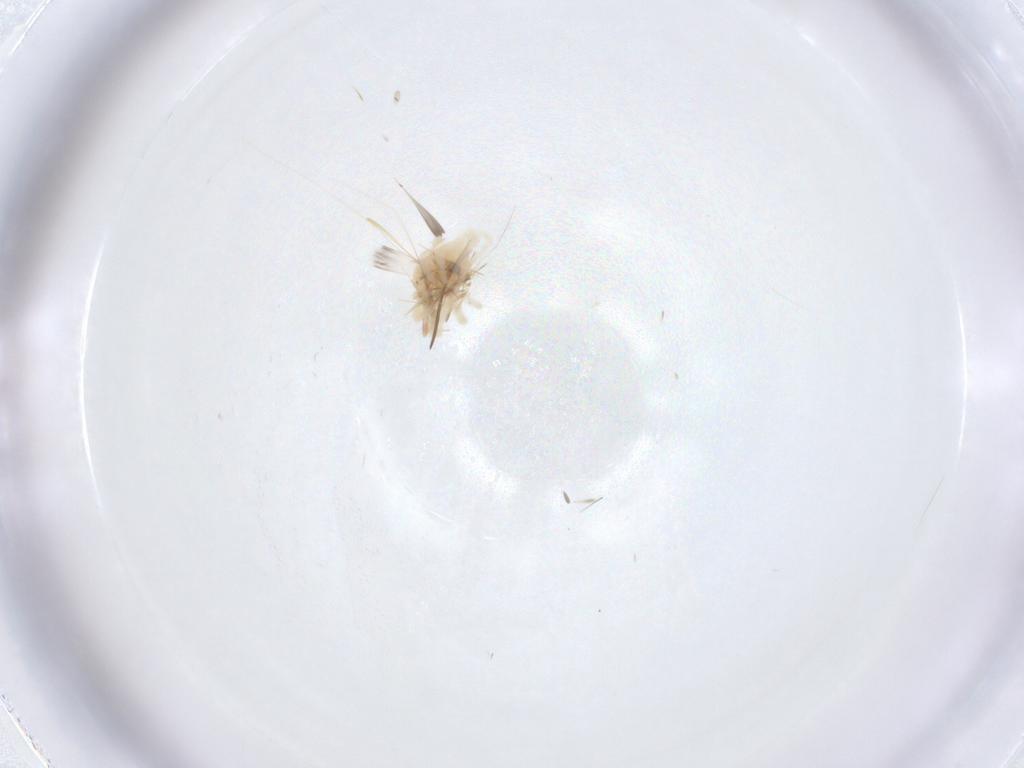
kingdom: Animalia
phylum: Arthropoda
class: Arachnida
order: Trombidiformes
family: Anystidae
